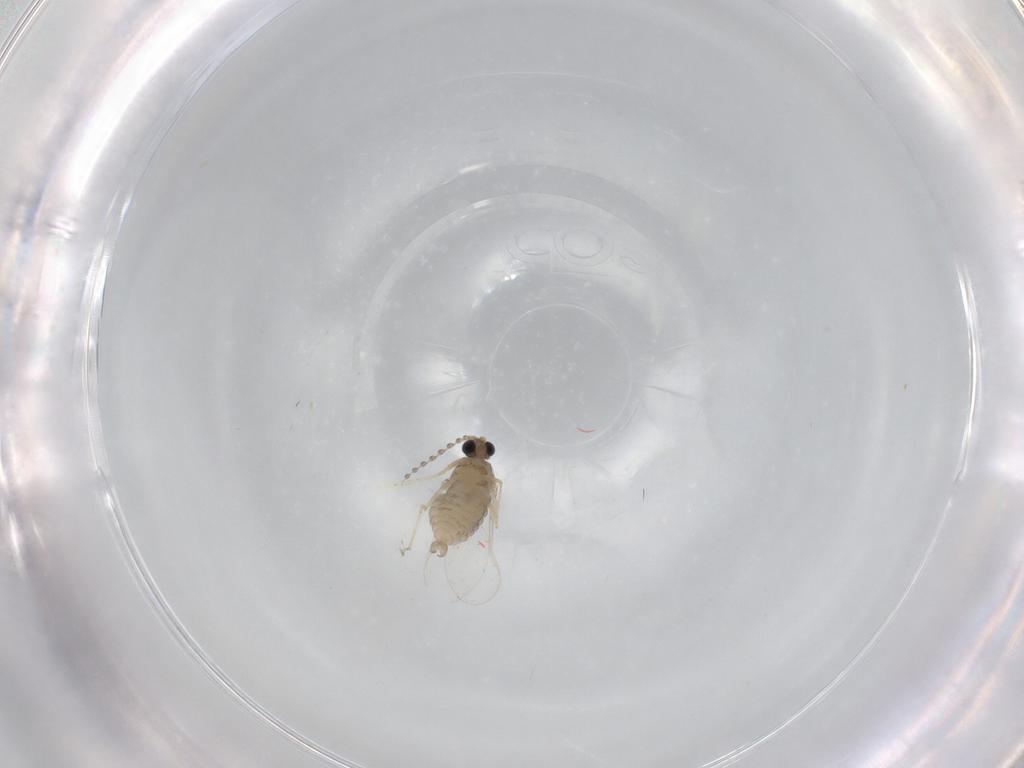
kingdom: Animalia
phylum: Arthropoda
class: Insecta
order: Diptera
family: Cecidomyiidae
